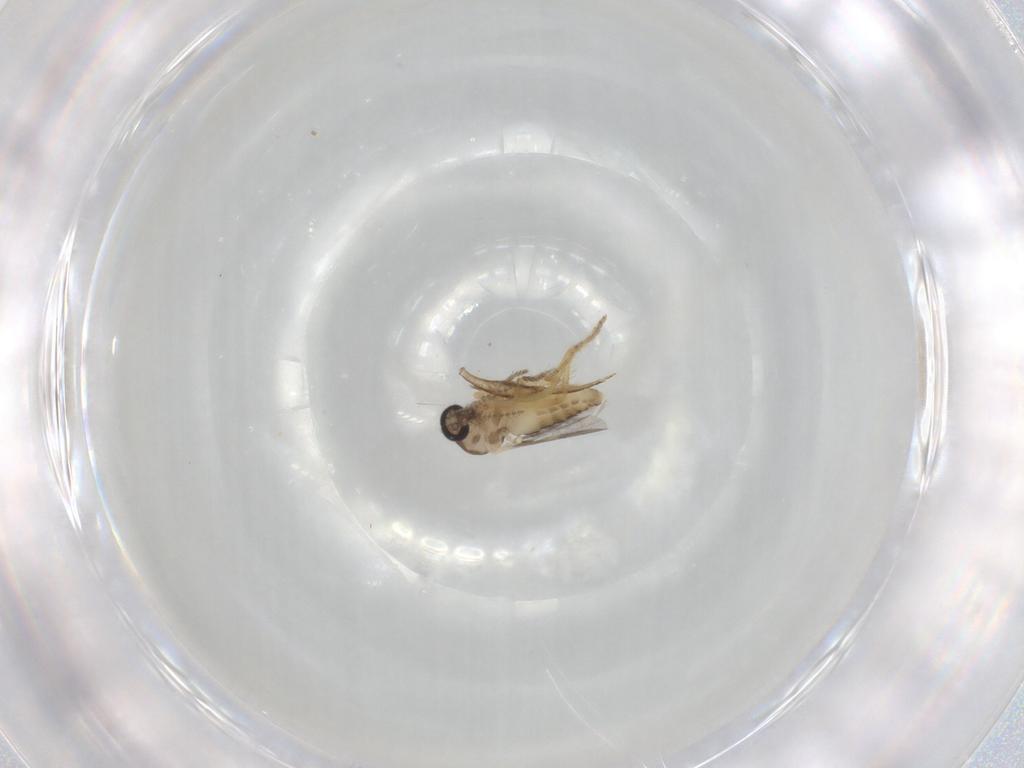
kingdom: Animalia
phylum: Arthropoda
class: Insecta
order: Diptera
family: Ceratopogonidae
